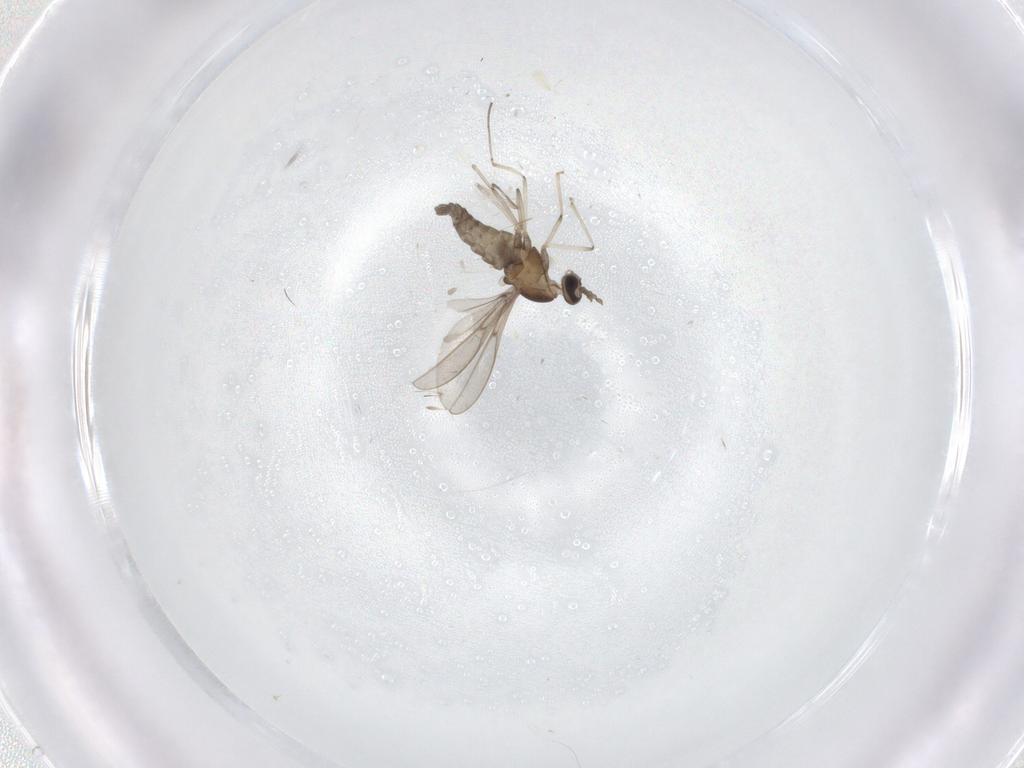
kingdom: Animalia
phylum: Arthropoda
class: Insecta
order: Diptera
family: Cecidomyiidae
